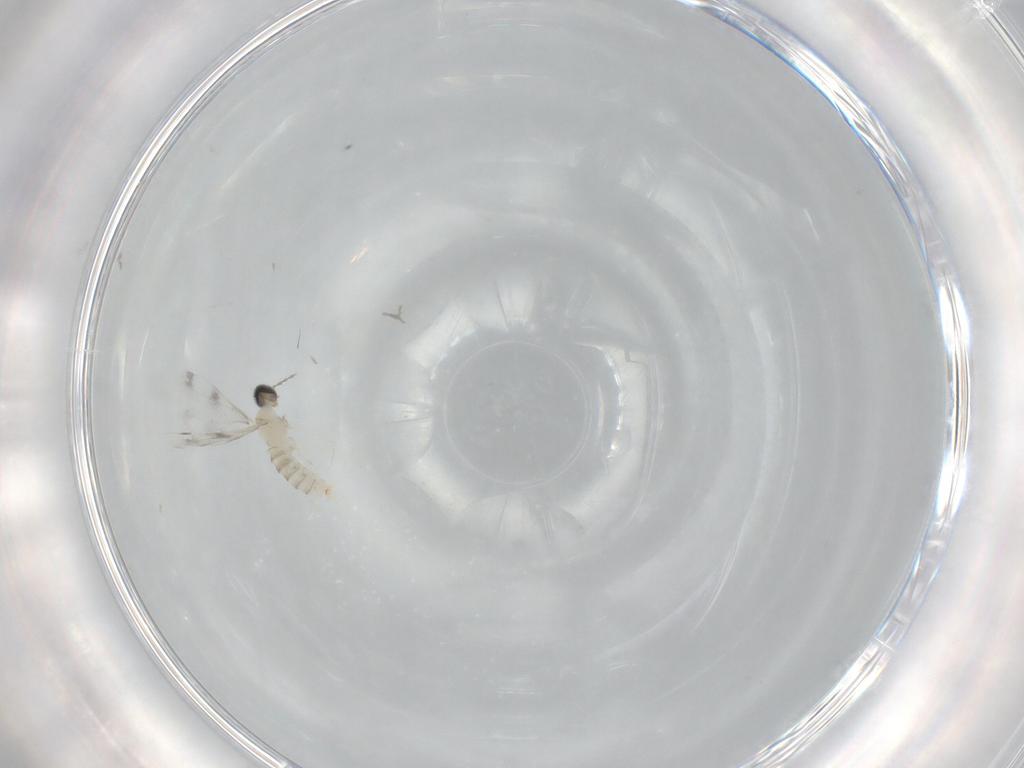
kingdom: Animalia
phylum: Arthropoda
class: Insecta
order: Diptera
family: Cecidomyiidae
